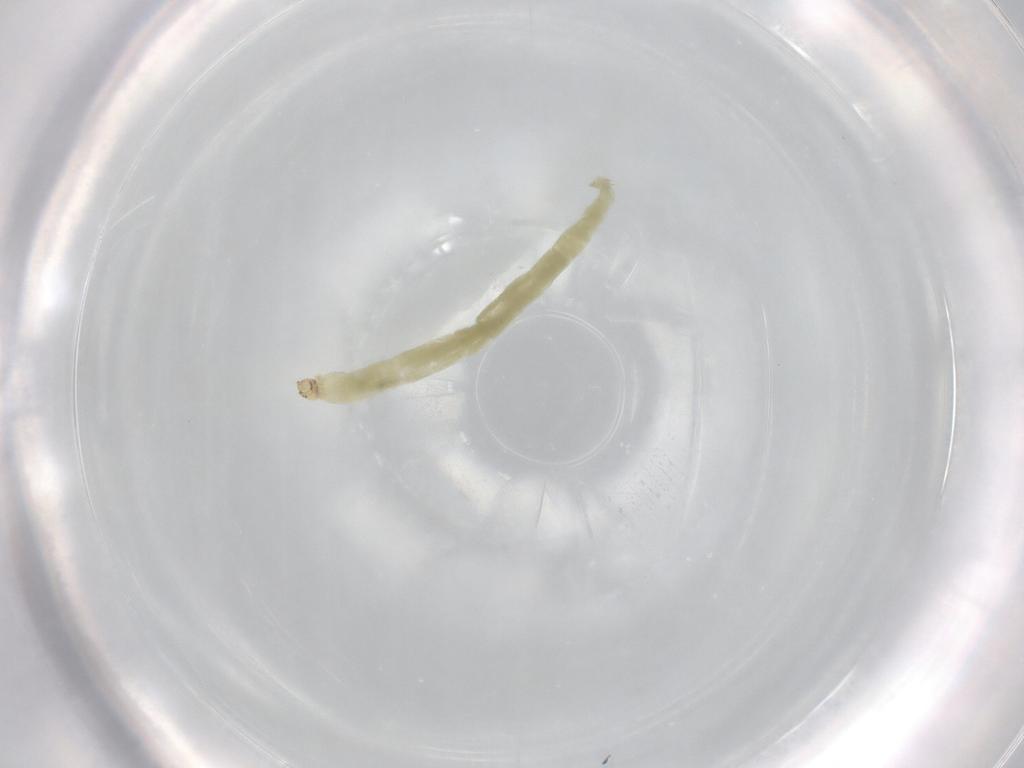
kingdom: Animalia
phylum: Arthropoda
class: Insecta
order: Diptera
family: Chironomidae
